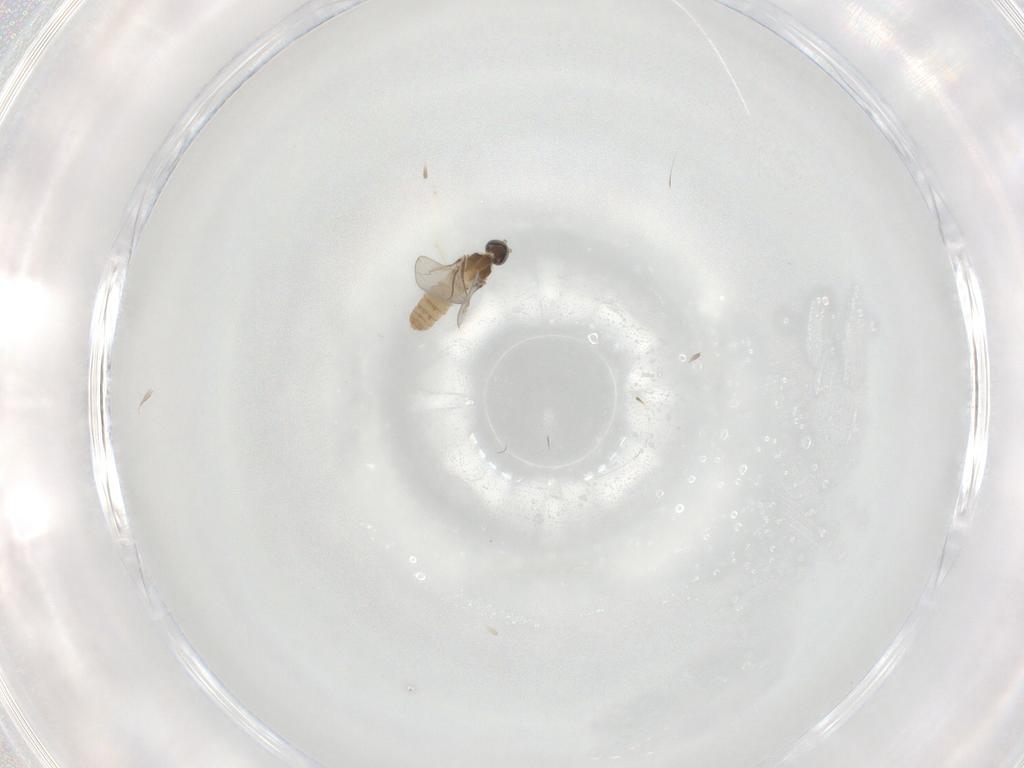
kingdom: Animalia
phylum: Arthropoda
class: Insecta
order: Diptera
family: Cecidomyiidae
